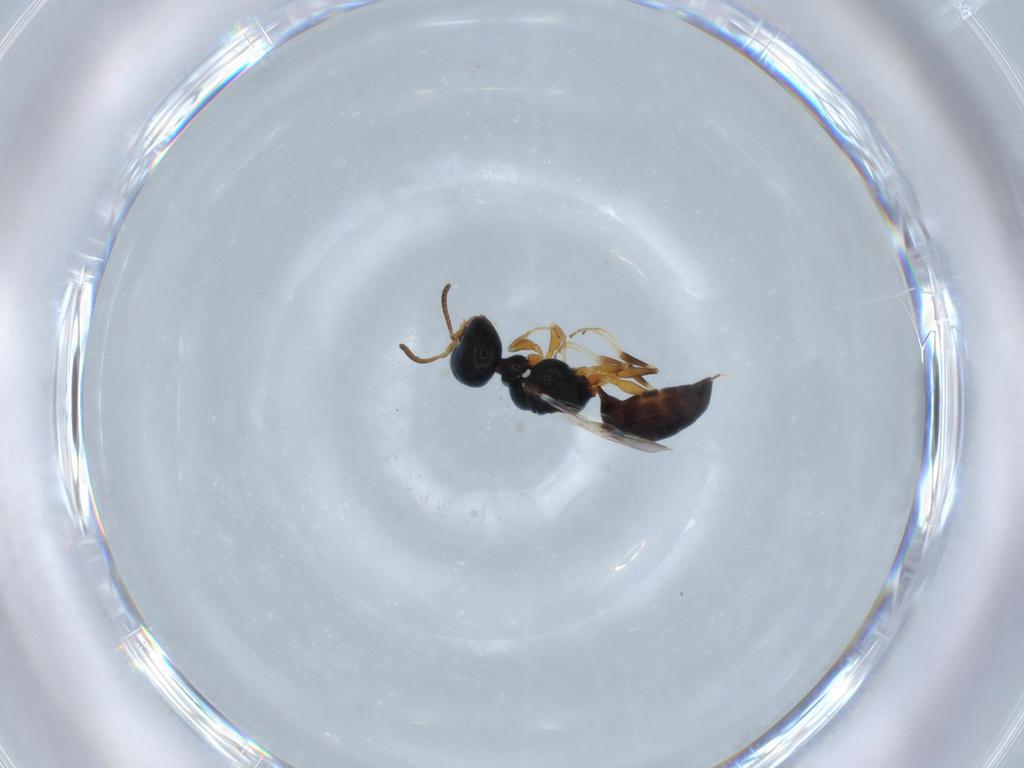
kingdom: Animalia
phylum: Arthropoda
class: Insecta
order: Hymenoptera
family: Pemphredonidae
